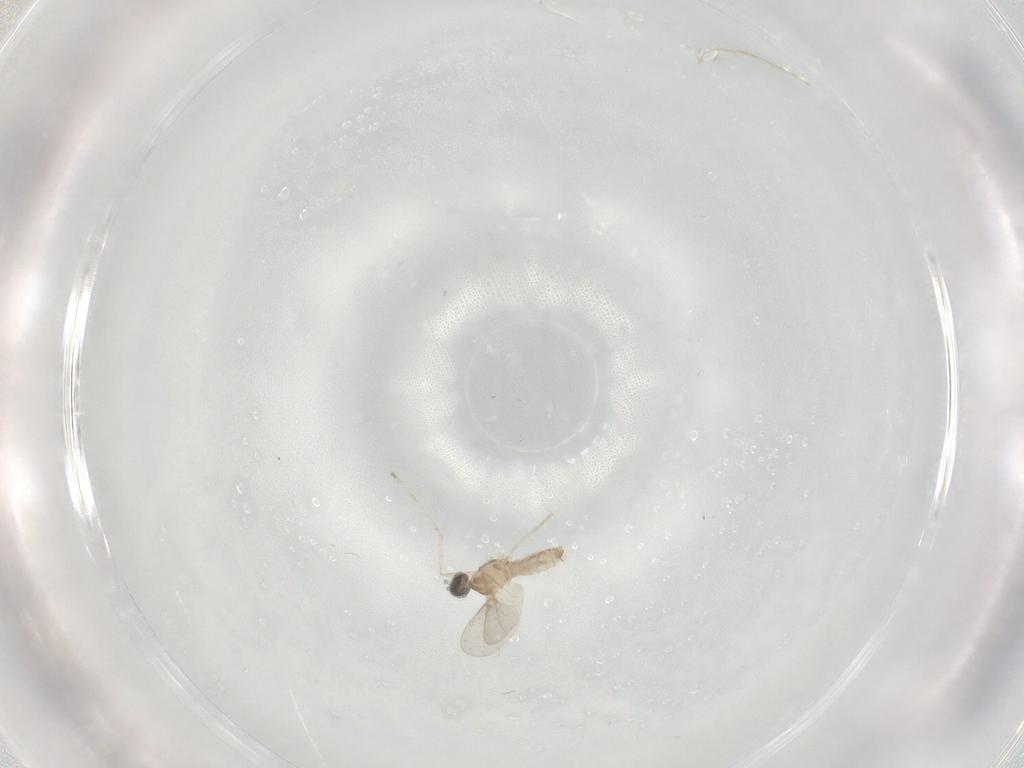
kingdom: Animalia
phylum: Arthropoda
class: Insecta
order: Diptera
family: Cecidomyiidae
